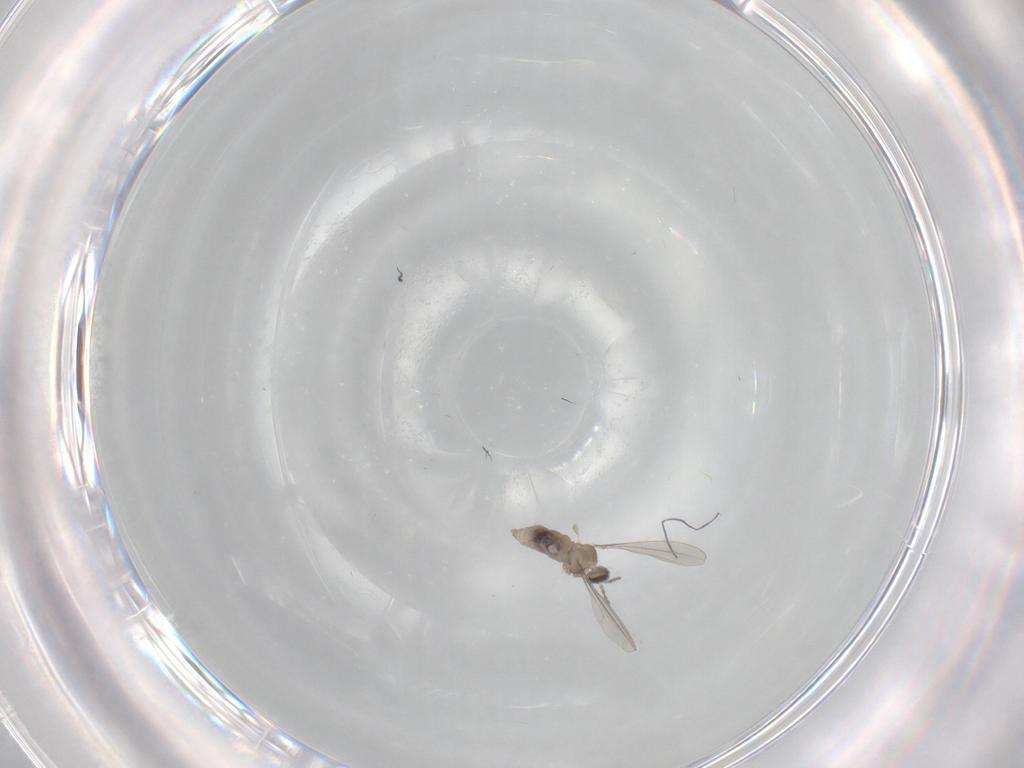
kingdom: Animalia
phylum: Arthropoda
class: Insecta
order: Diptera
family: Cecidomyiidae
